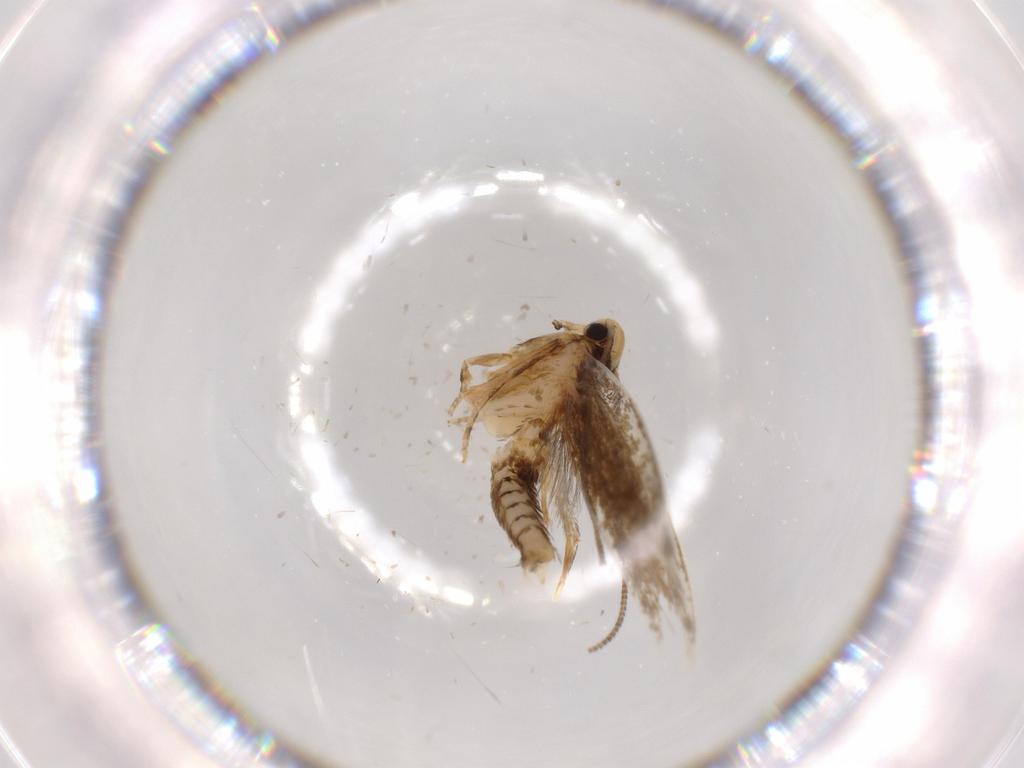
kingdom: Animalia
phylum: Arthropoda
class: Insecta
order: Lepidoptera
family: Tineidae
